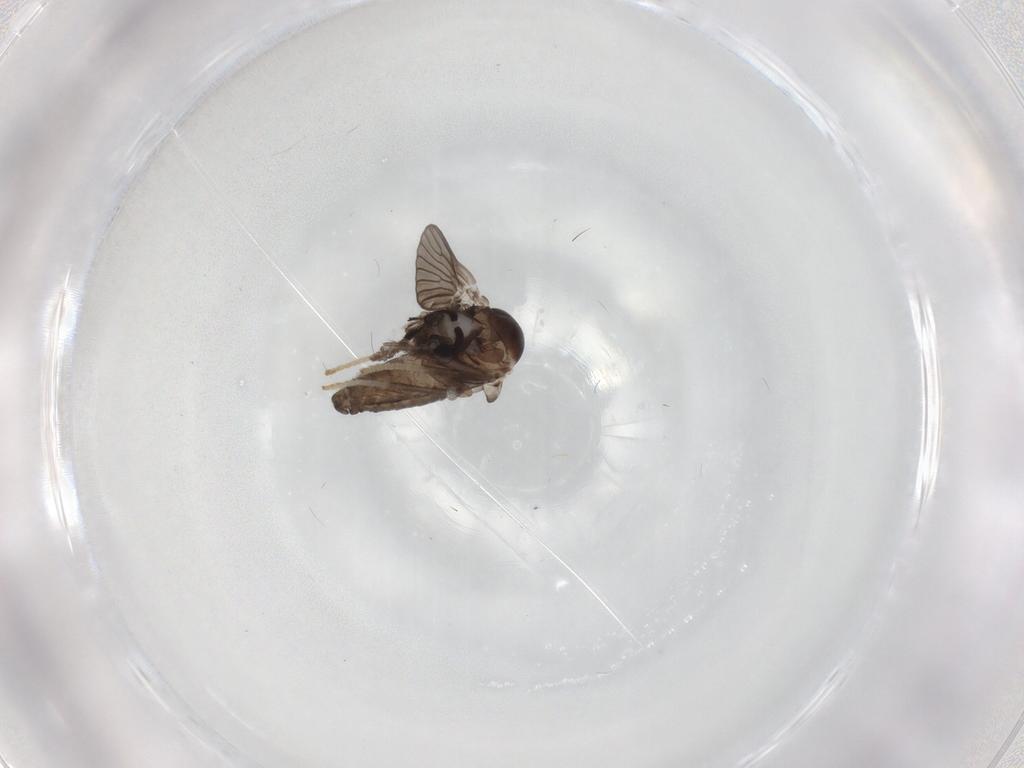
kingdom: Animalia
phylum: Arthropoda
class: Insecta
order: Diptera
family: Psychodidae
